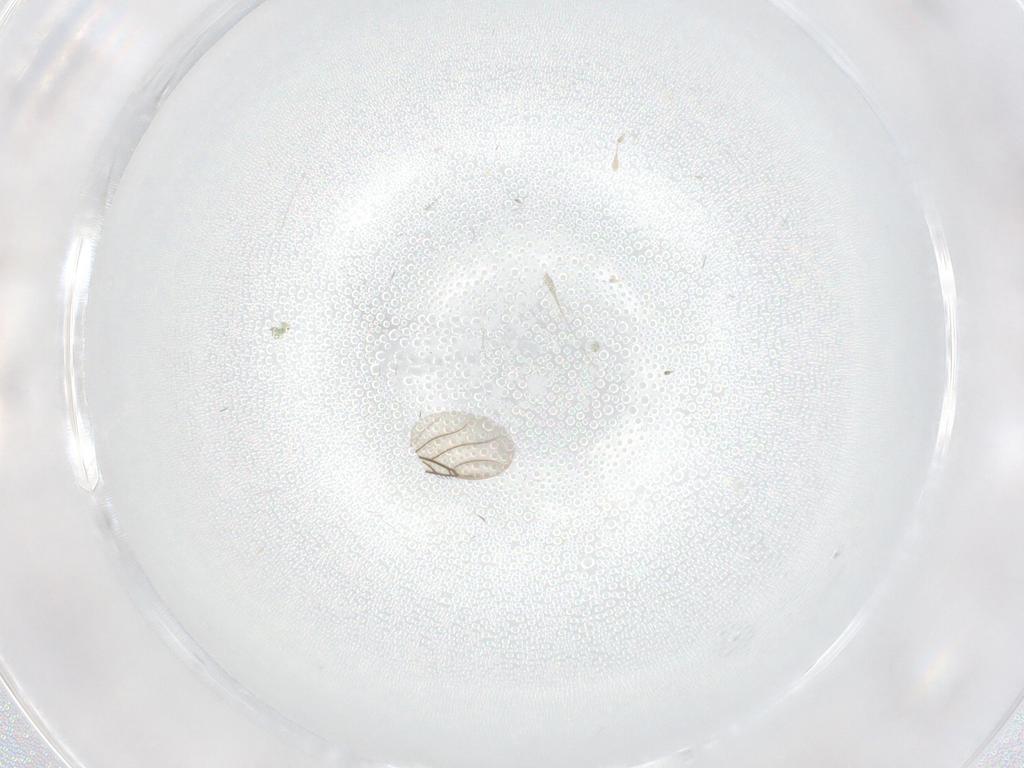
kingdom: Animalia
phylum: Arthropoda
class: Insecta
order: Diptera
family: Cecidomyiidae
